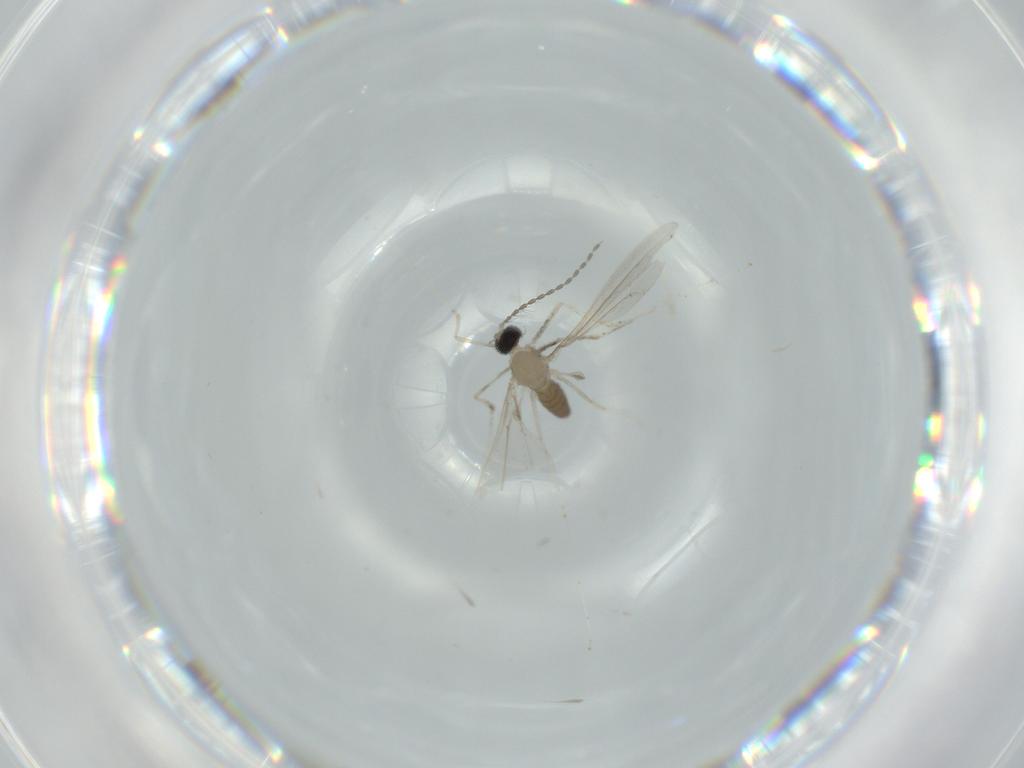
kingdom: Animalia
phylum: Arthropoda
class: Insecta
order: Diptera
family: Cecidomyiidae
